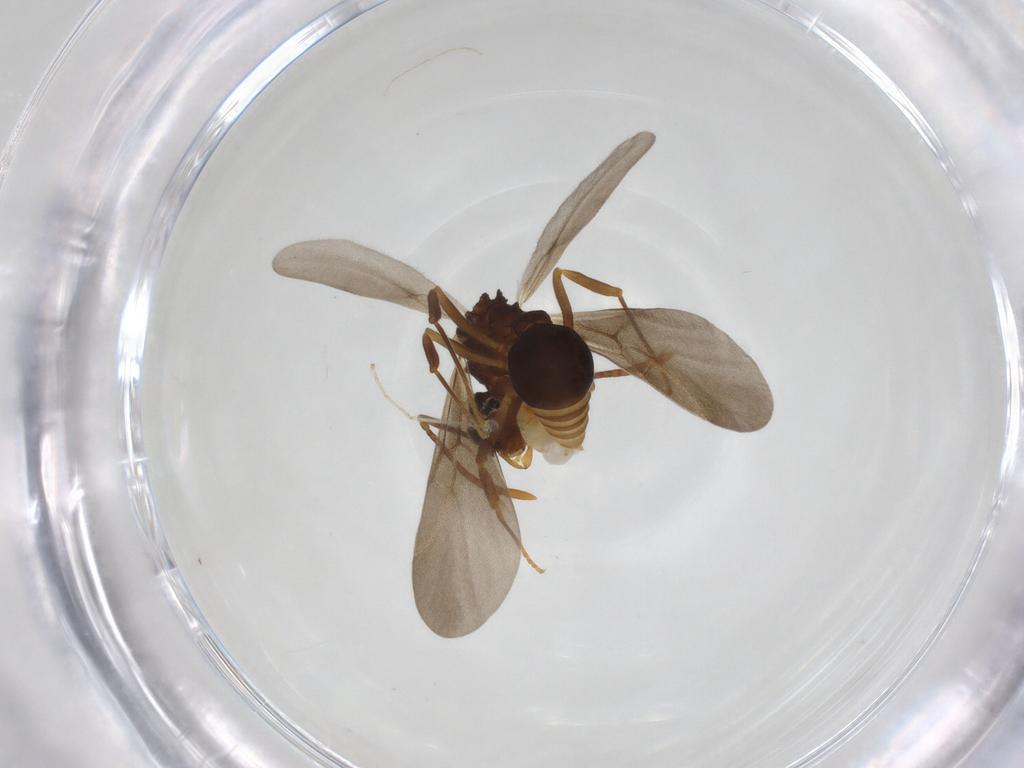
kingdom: Animalia
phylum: Arthropoda
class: Insecta
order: Hymenoptera
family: Formicidae
